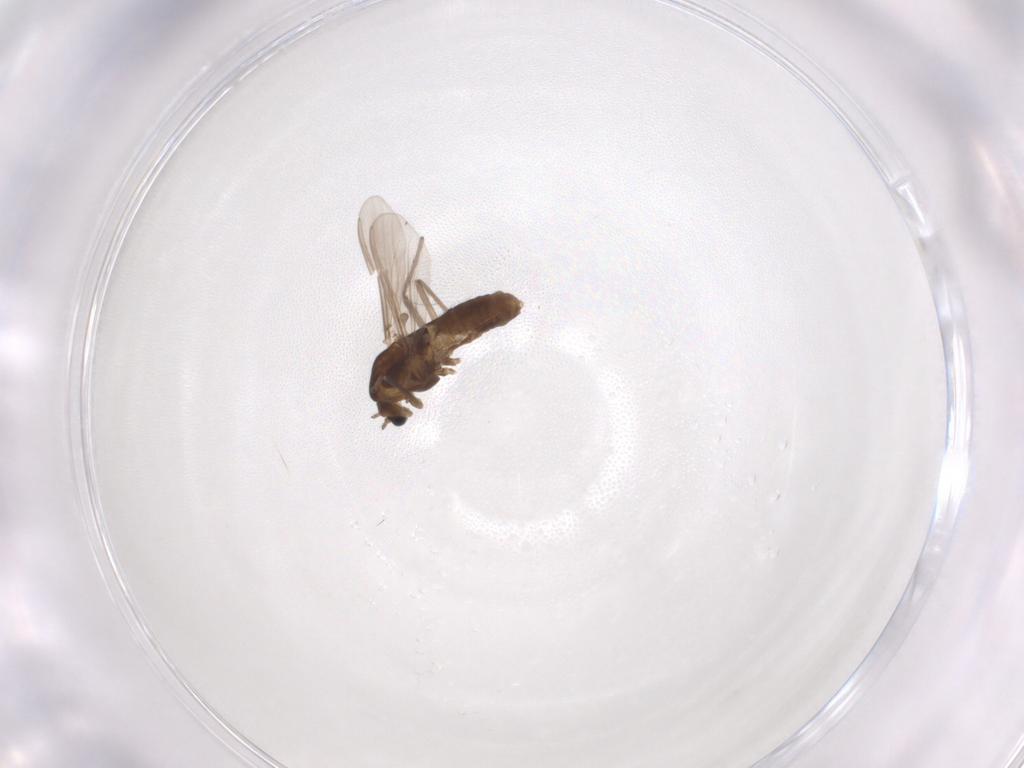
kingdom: Animalia
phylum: Arthropoda
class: Insecta
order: Diptera
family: Chironomidae
